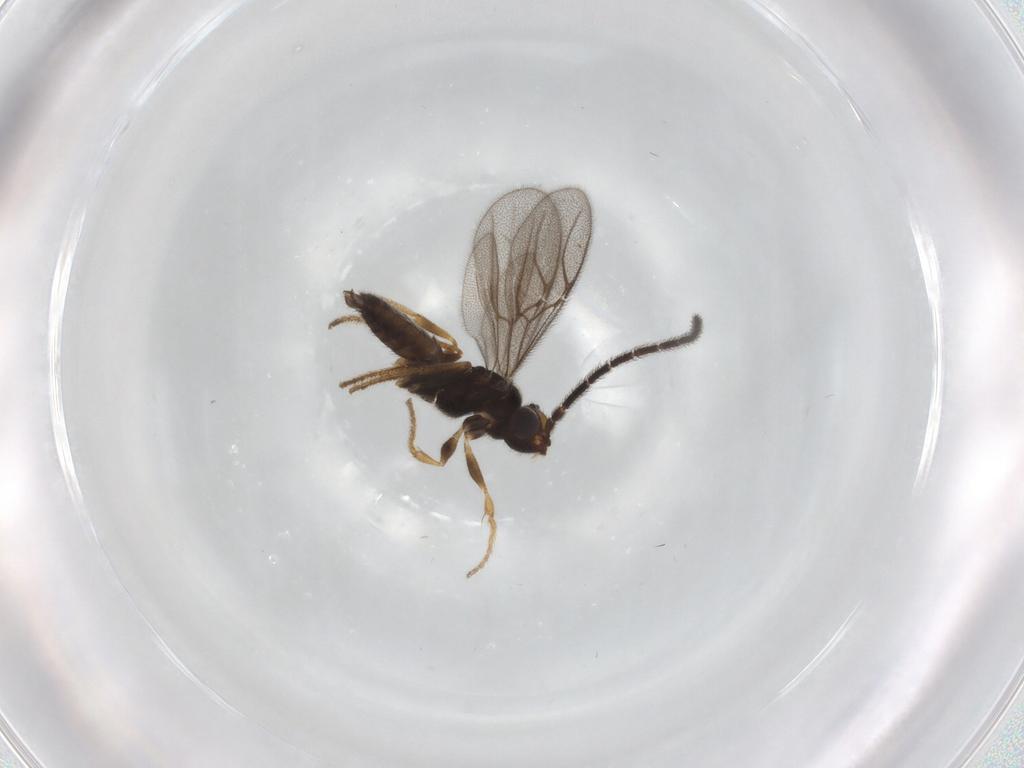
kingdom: Animalia
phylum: Arthropoda
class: Insecta
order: Hymenoptera
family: Dryinidae
